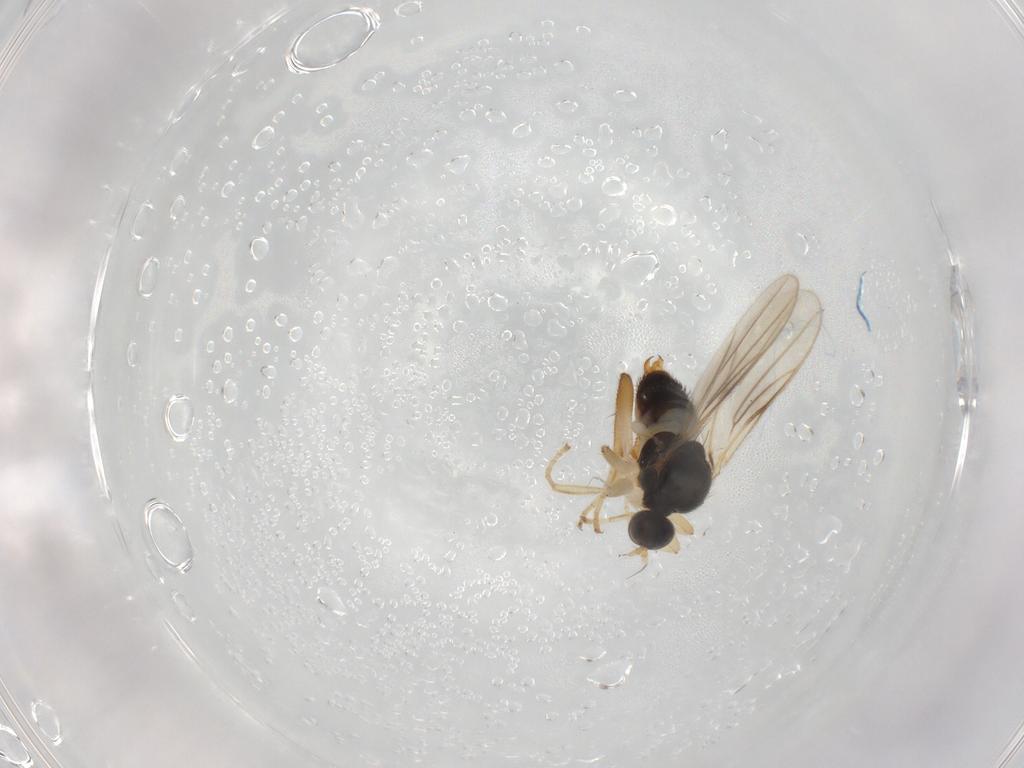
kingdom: Animalia
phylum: Arthropoda
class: Insecta
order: Diptera
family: Hybotidae
